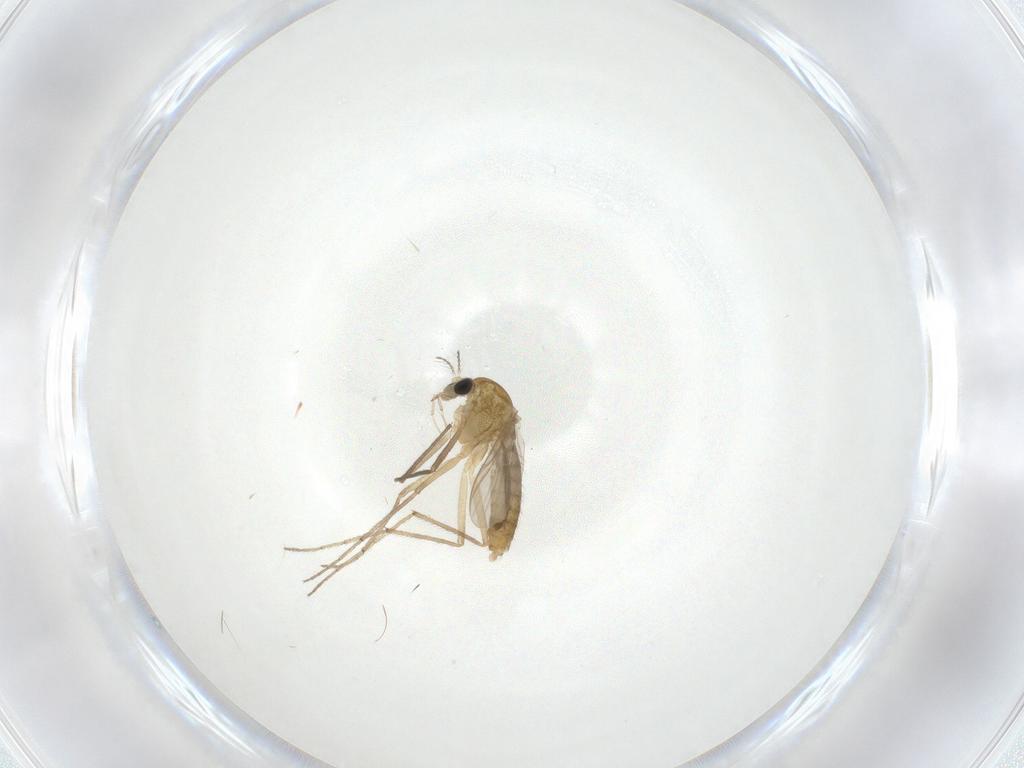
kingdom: Animalia
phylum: Arthropoda
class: Insecta
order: Diptera
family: Chironomidae
